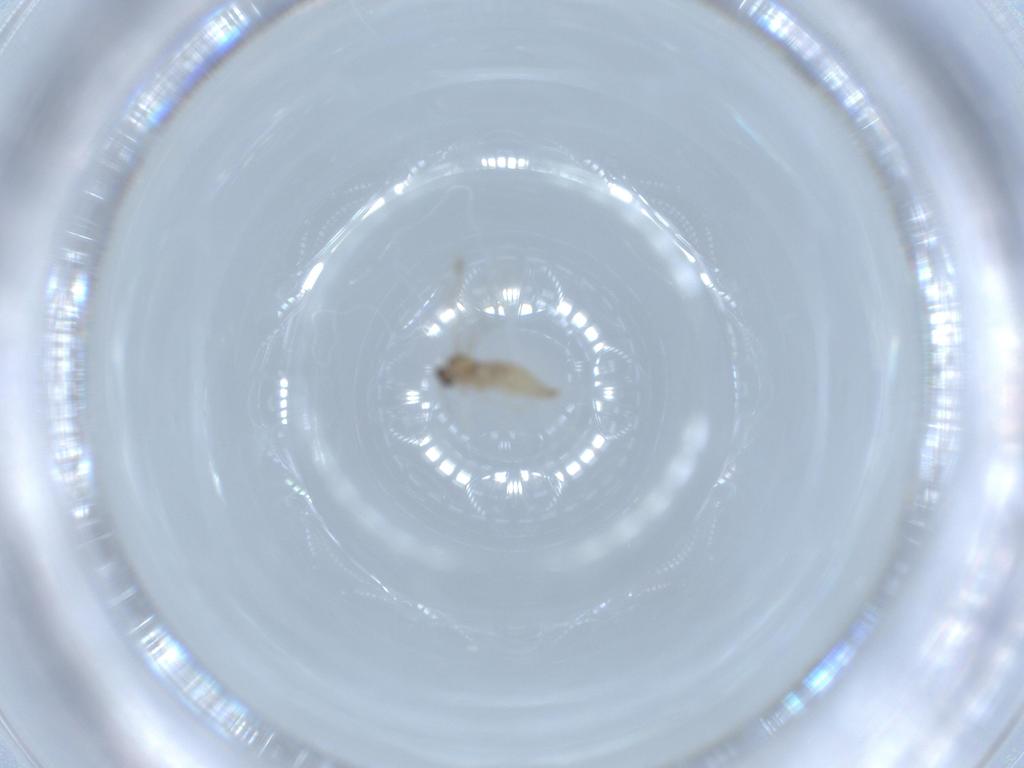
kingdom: Animalia
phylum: Arthropoda
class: Insecta
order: Diptera
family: Cecidomyiidae
